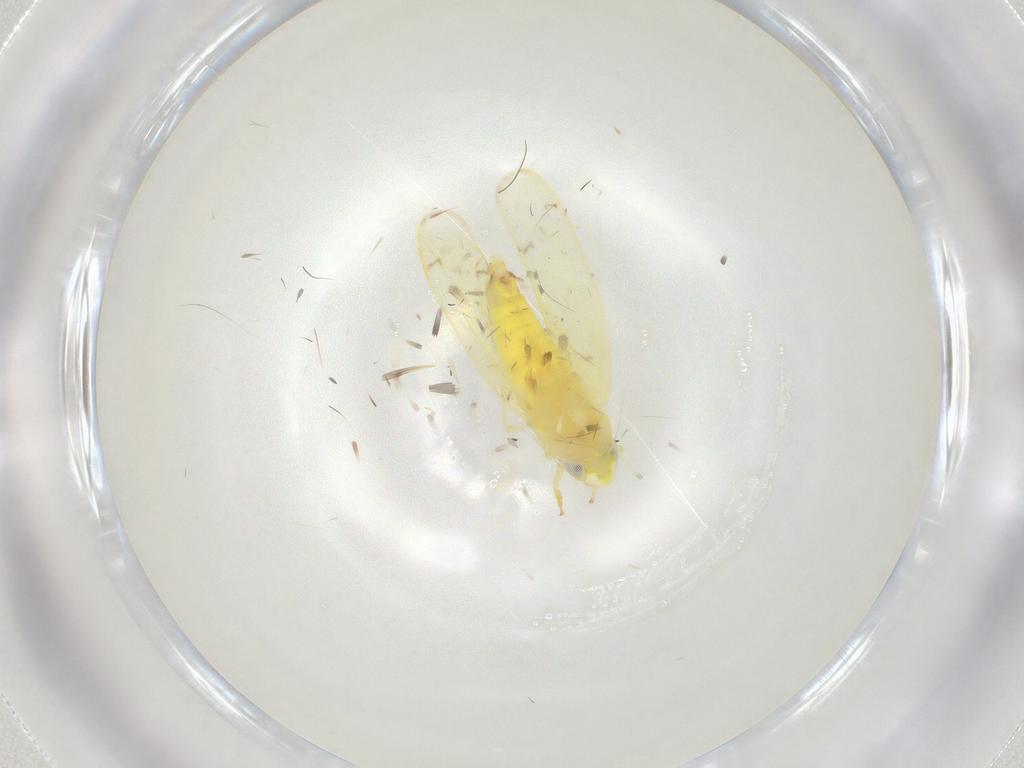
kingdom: Animalia
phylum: Arthropoda
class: Insecta
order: Hemiptera
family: Cicadellidae
